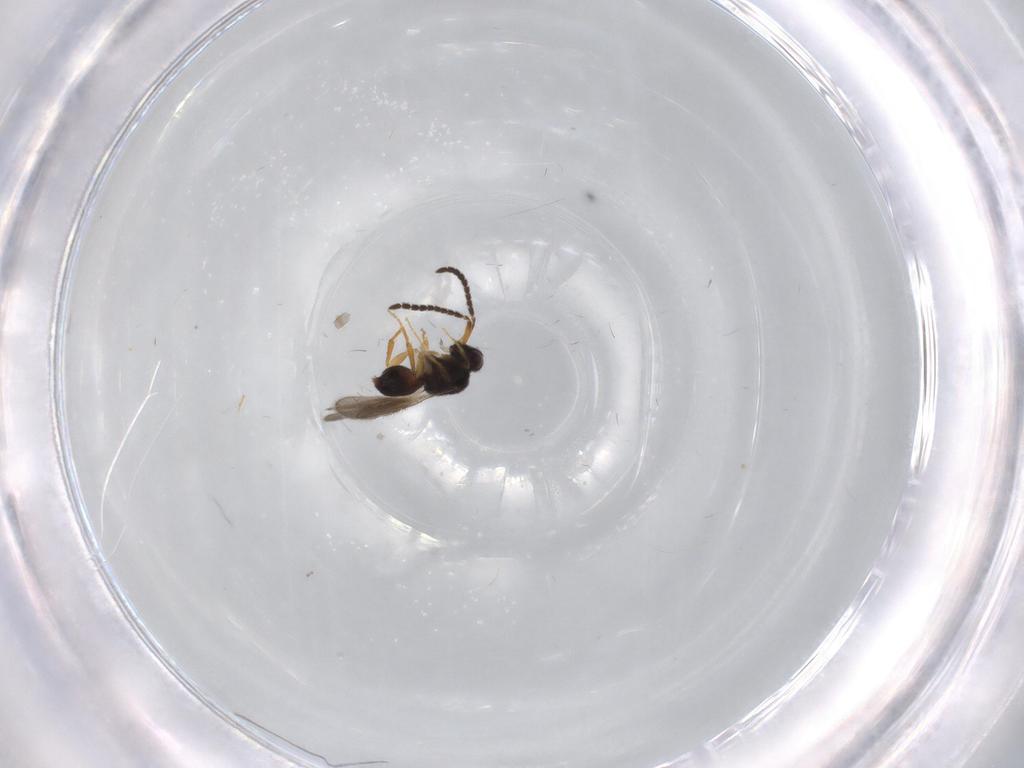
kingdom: Animalia
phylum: Arthropoda
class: Insecta
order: Hymenoptera
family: Ceraphronidae
